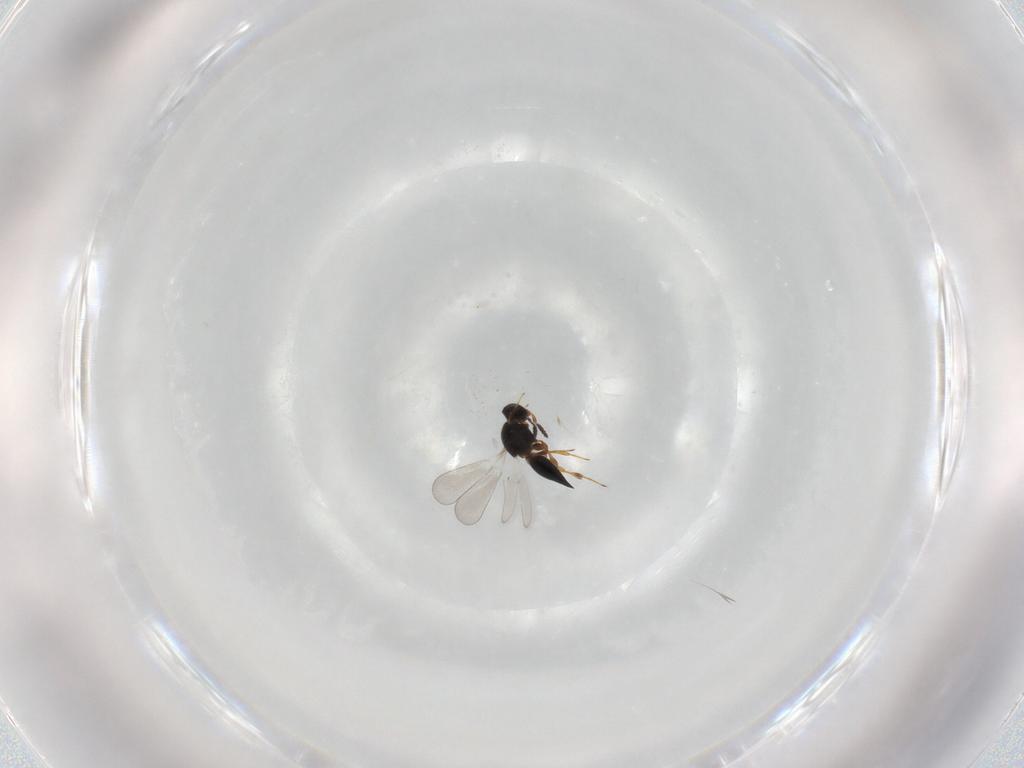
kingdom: Animalia
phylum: Arthropoda
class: Insecta
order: Hymenoptera
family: Platygastridae
